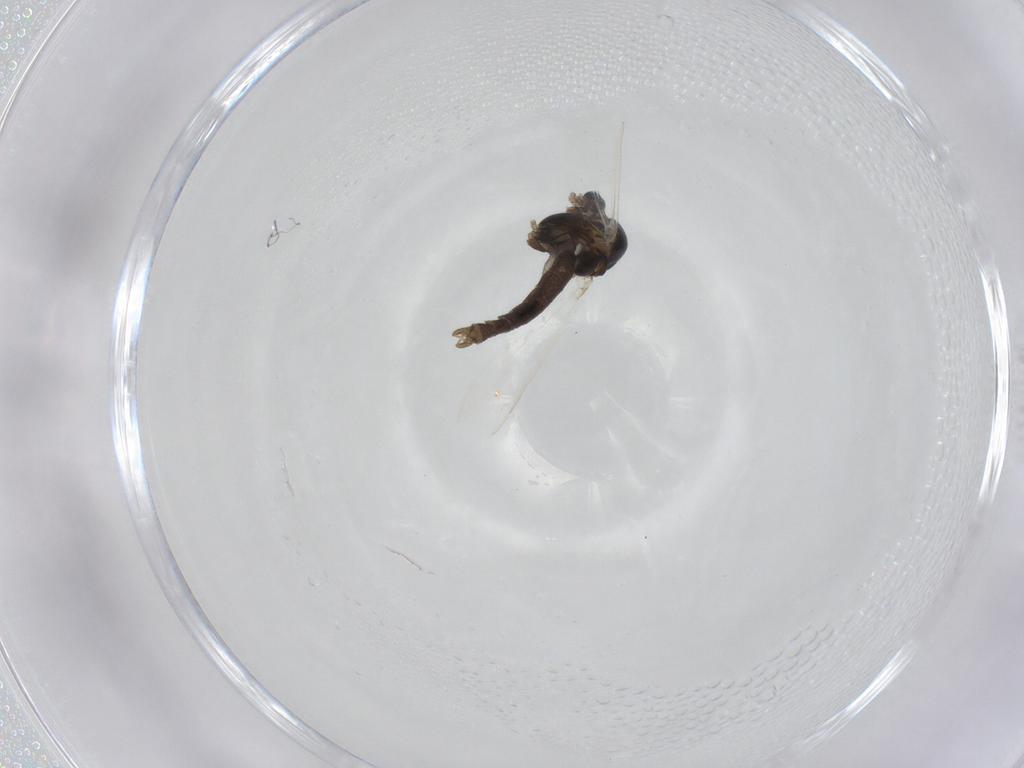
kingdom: Animalia
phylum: Arthropoda
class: Insecta
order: Diptera
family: Chironomidae
